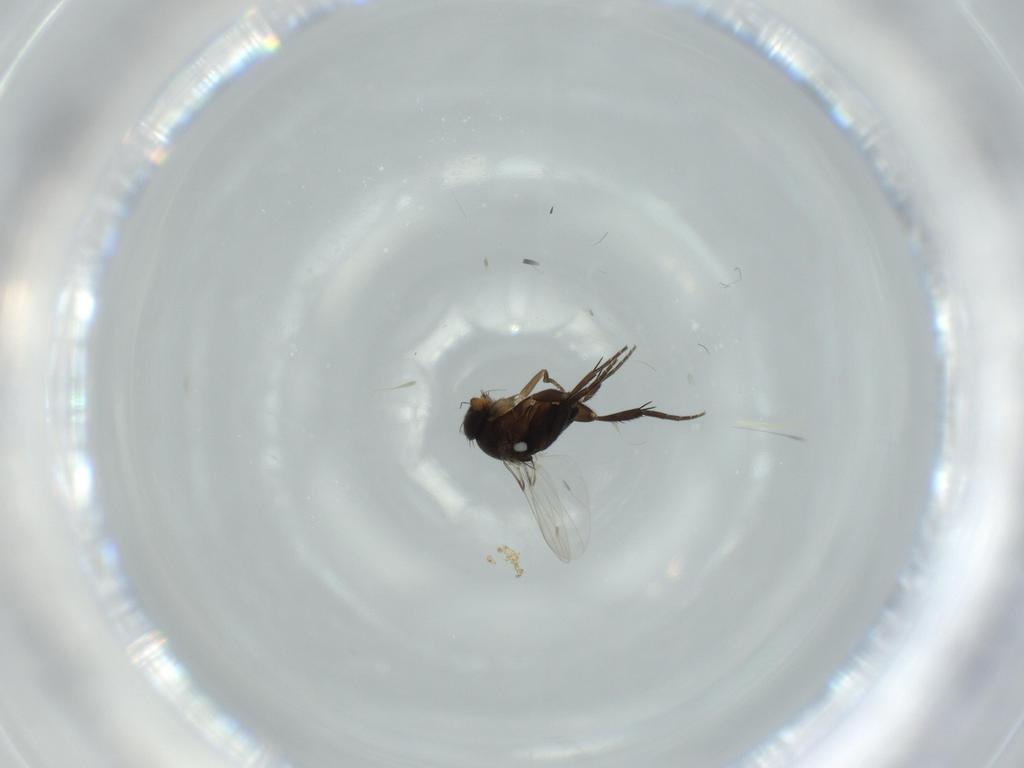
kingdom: Animalia
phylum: Arthropoda
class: Insecta
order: Diptera
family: Phoridae
